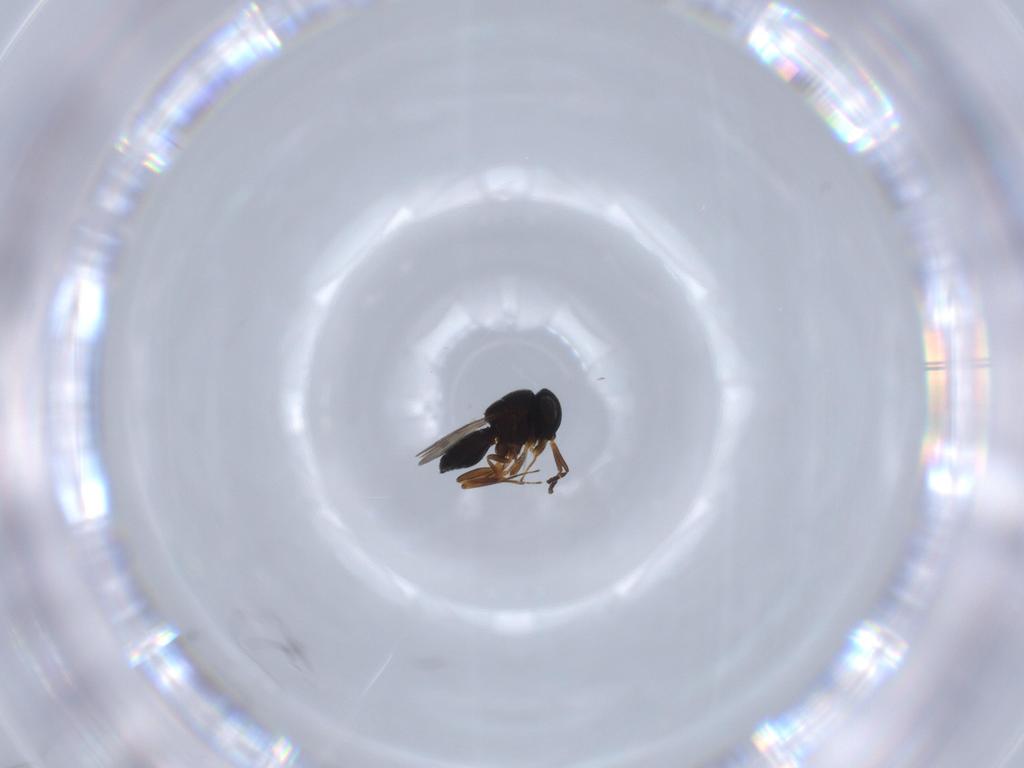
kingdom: Animalia
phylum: Arthropoda
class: Insecta
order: Hymenoptera
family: Scelionidae
